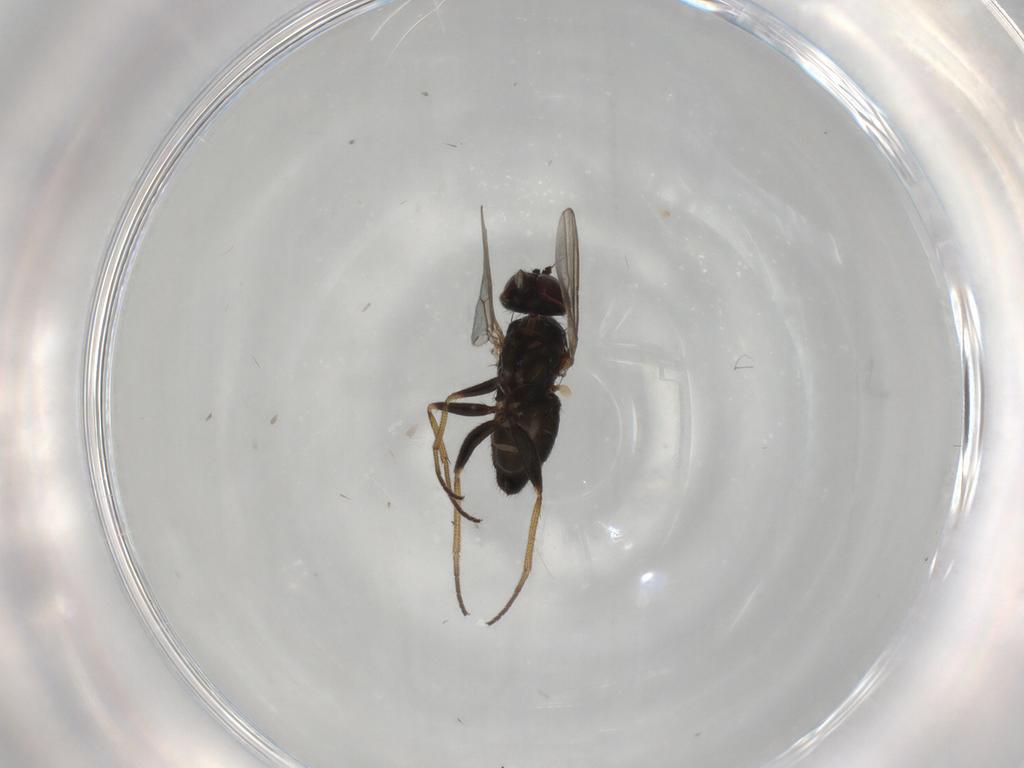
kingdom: Animalia
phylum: Arthropoda
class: Insecta
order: Diptera
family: Dolichopodidae
